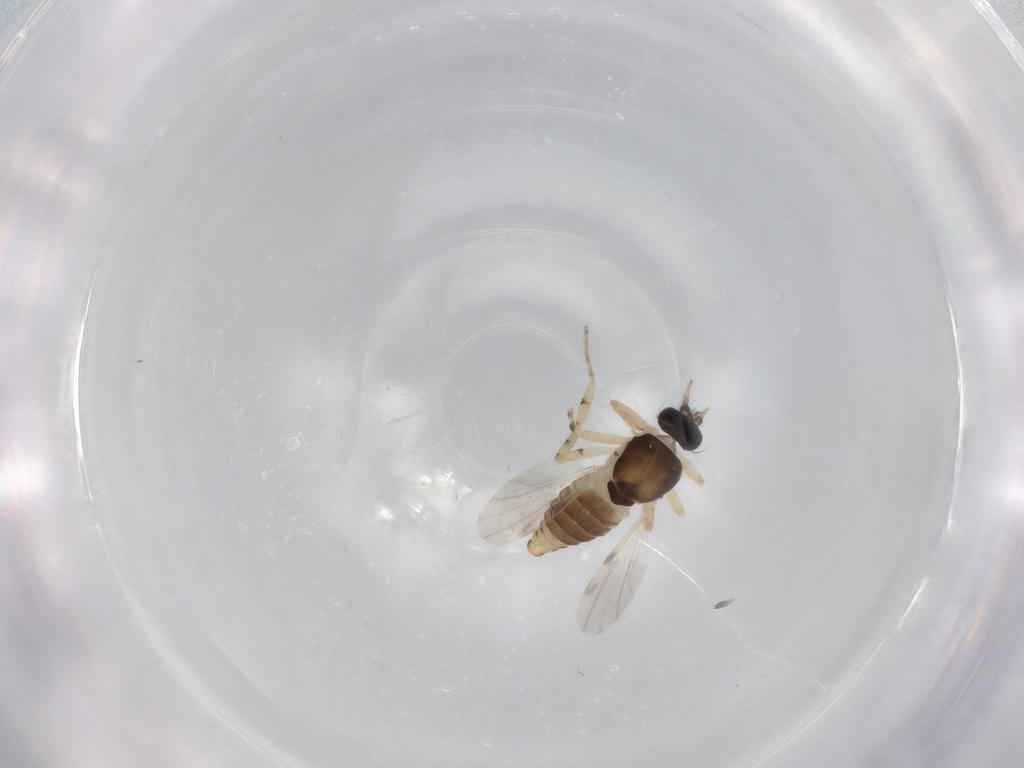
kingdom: Animalia
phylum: Arthropoda
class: Insecta
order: Diptera
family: Ceratopogonidae
